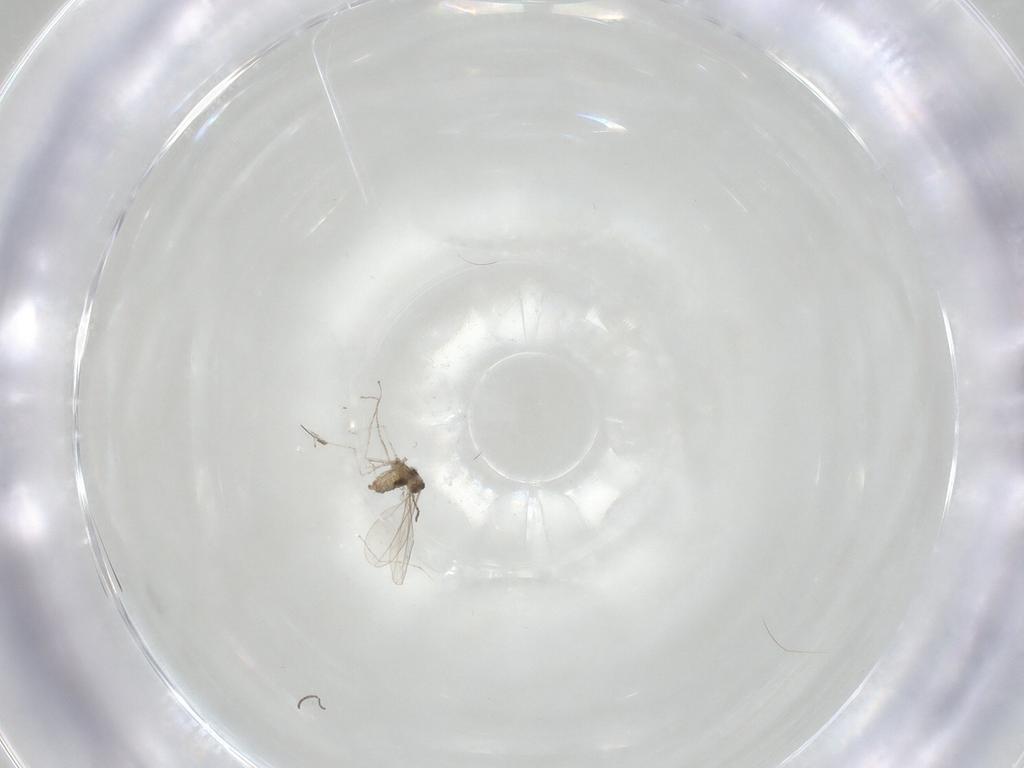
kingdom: Animalia
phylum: Arthropoda
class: Insecta
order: Diptera
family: Cecidomyiidae
